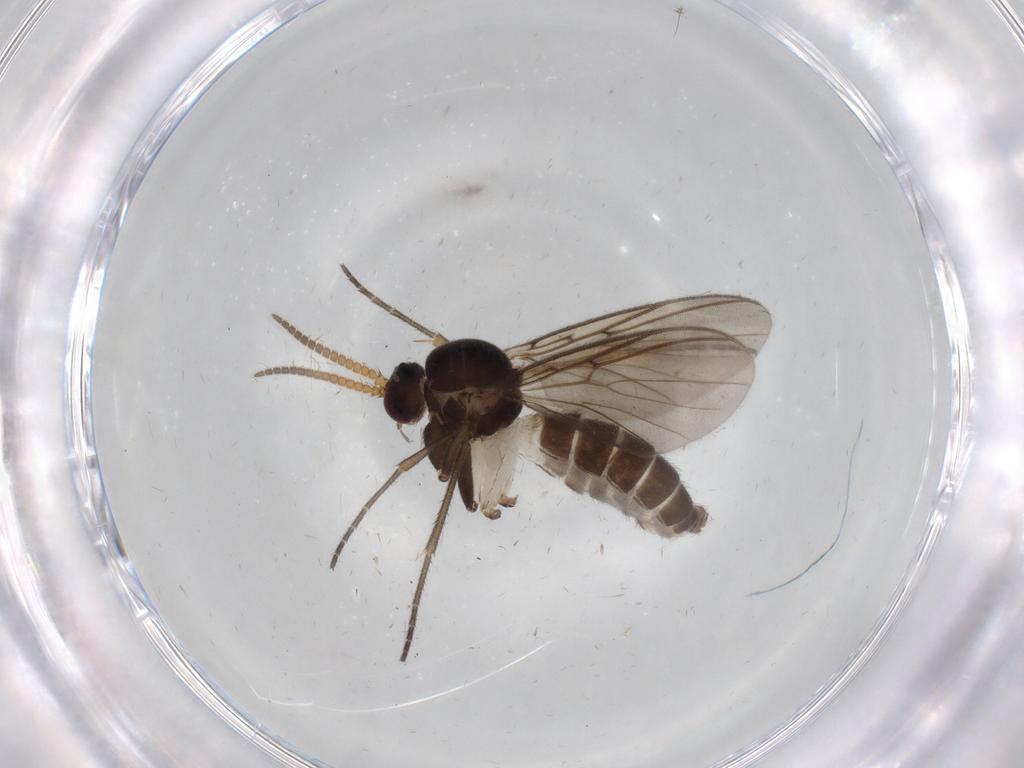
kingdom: Animalia
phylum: Arthropoda
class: Insecta
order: Diptera
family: Mycetophilidae
